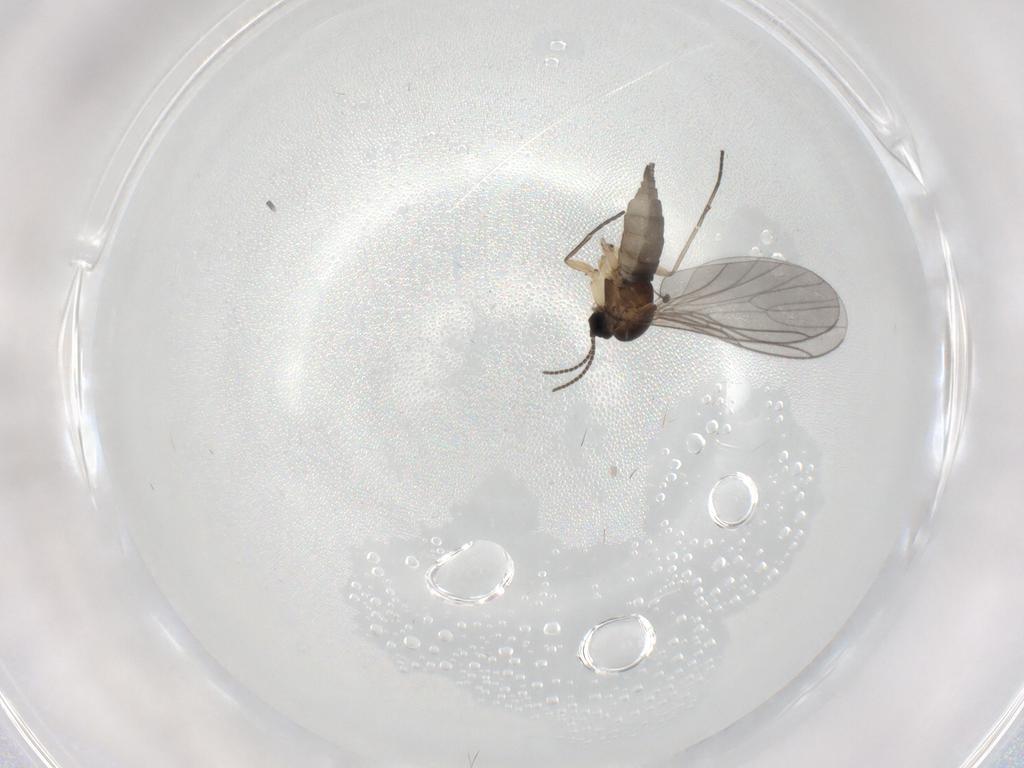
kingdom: Animalia
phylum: Arthropoda
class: Insecta
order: Diptera
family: Sciaridae
